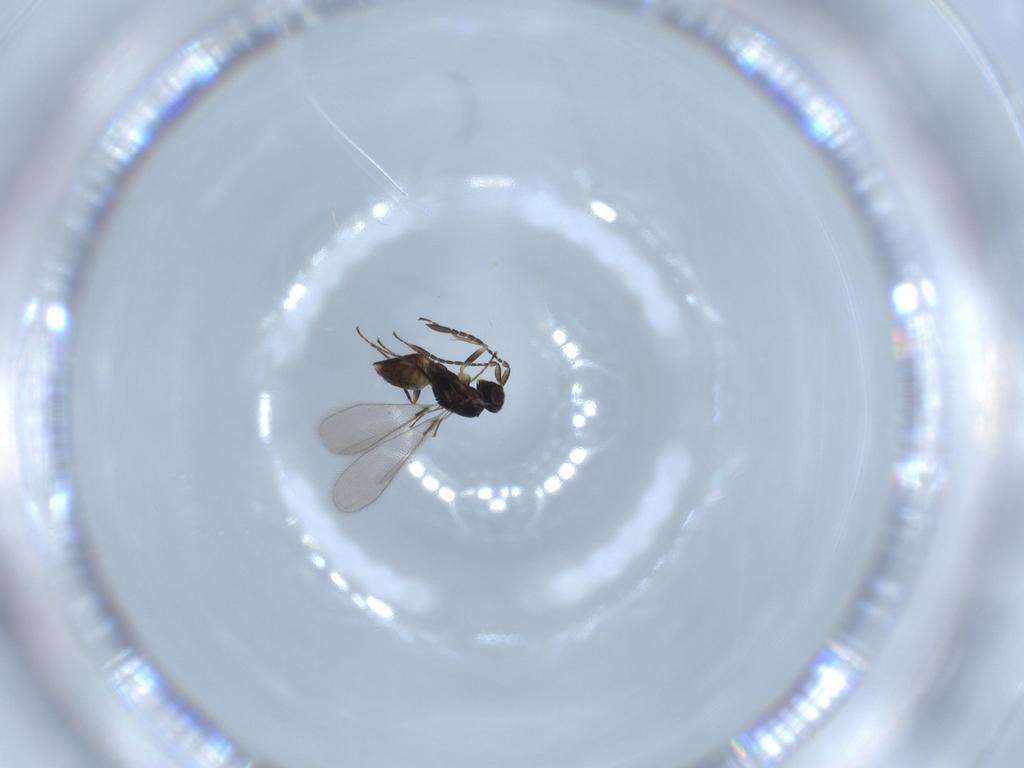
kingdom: Animalia
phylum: Arthropoda
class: Insecta
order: Hymenoptera
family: Mymaridae
